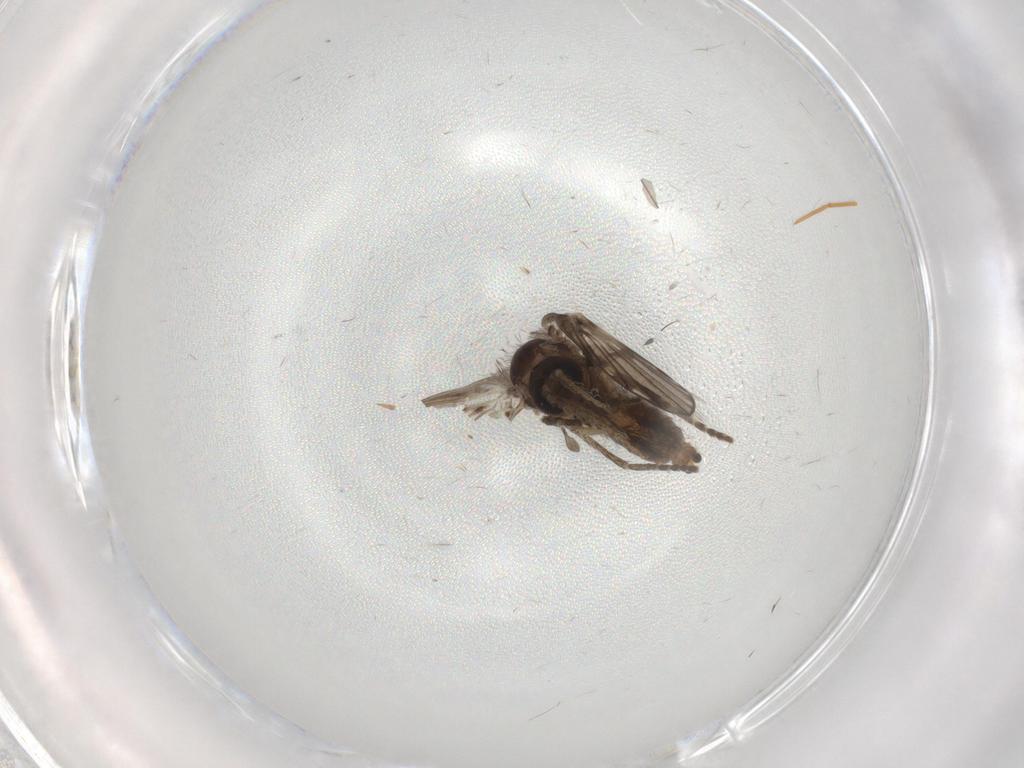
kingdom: Animalia
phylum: Arthropoda
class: Insecta
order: Diptera
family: Psychodidae
